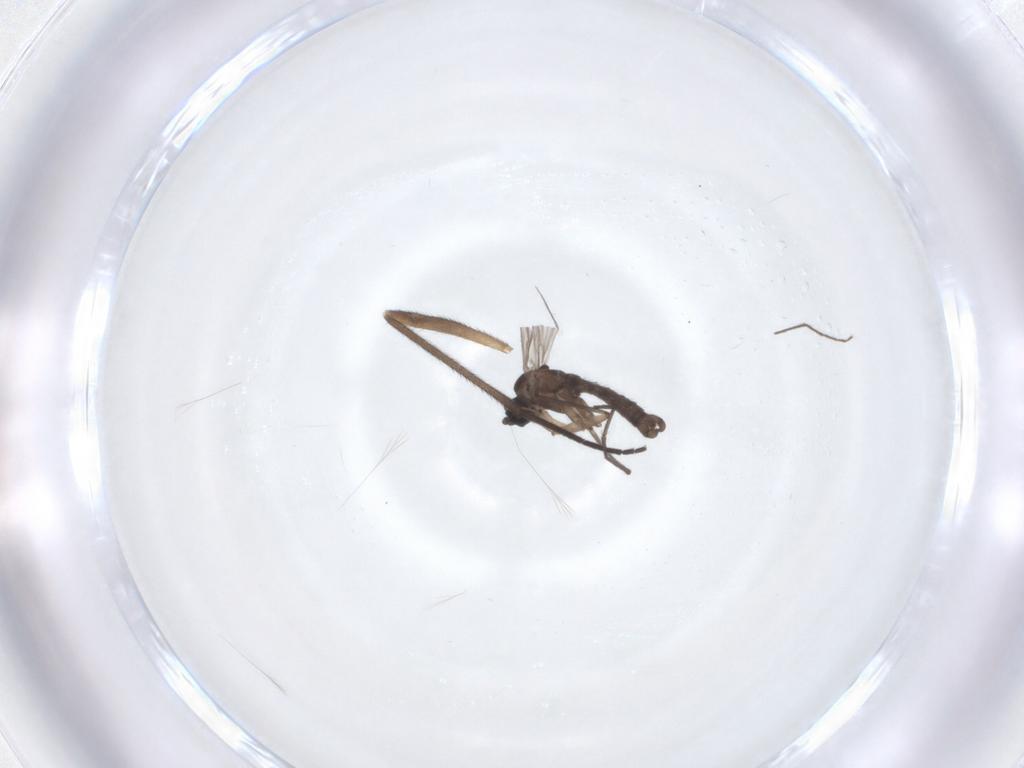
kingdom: Animalia
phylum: Arthropoda
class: Insecta
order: Diptera
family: Sciaridae
